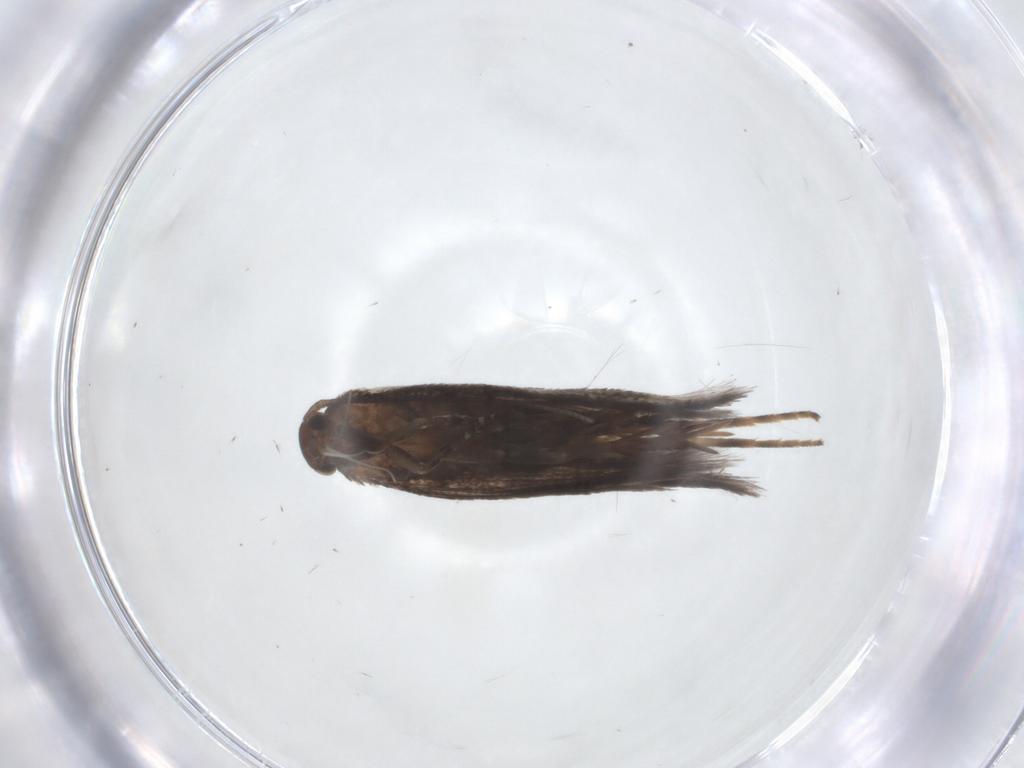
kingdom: Animalia
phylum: Arthropoda
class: Insecta
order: Lepidoptera
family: Elachistidae
